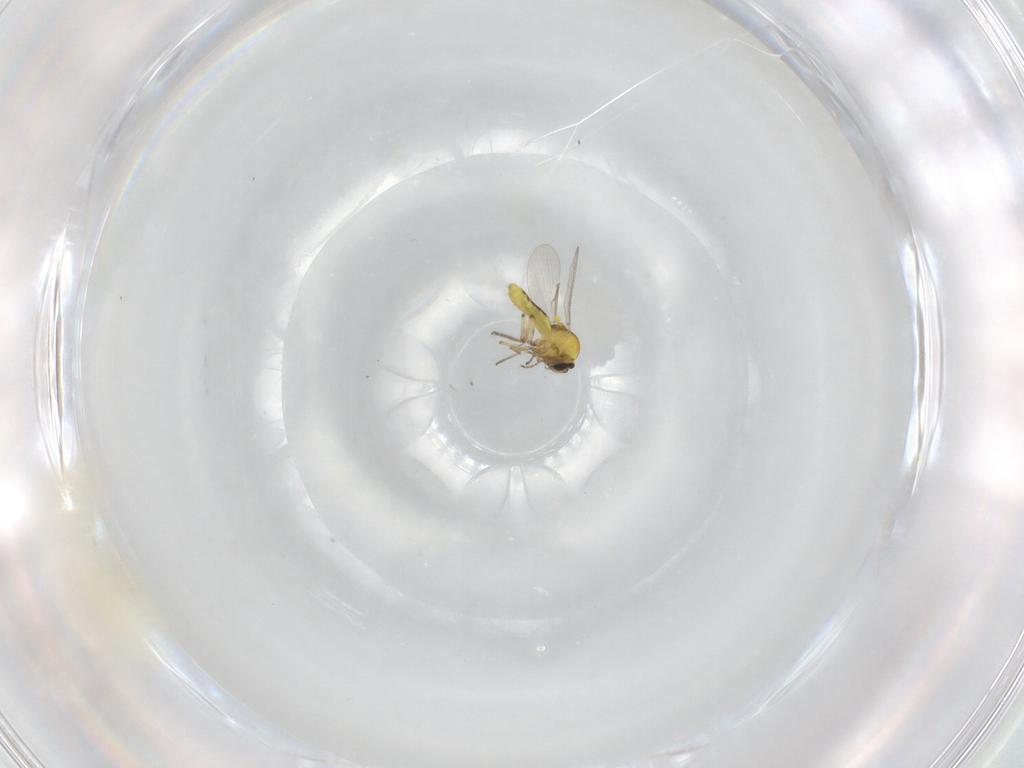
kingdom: Animalia
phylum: Arthropoda
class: Insecta
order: Diptera
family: Ceratopogonidae
